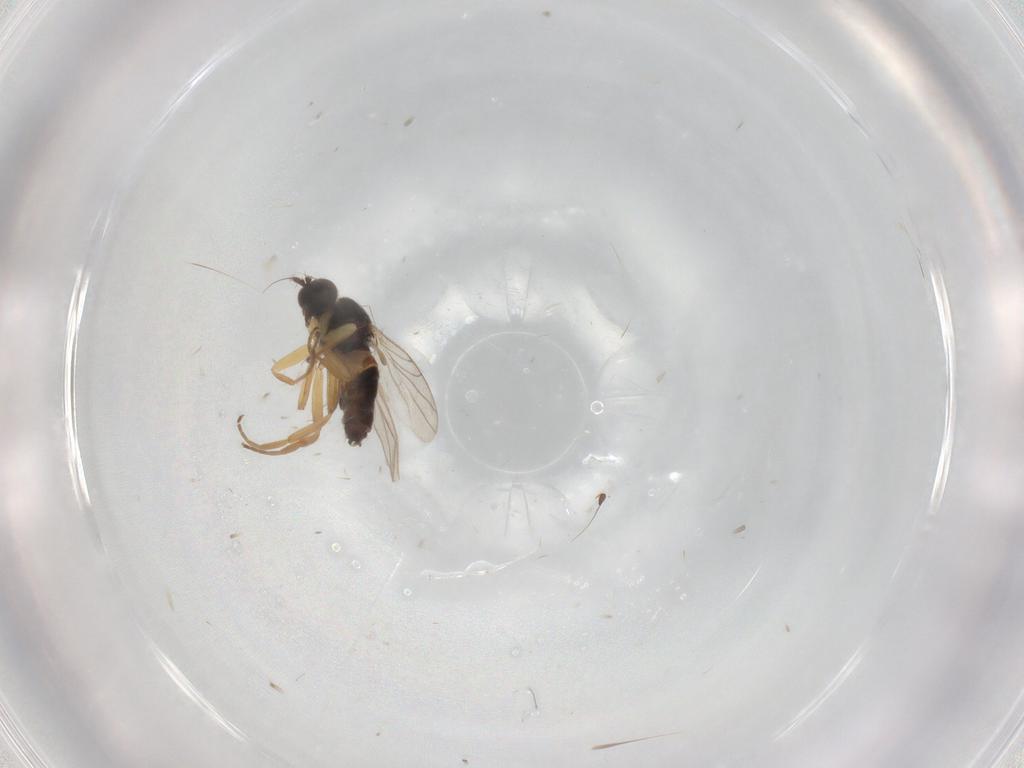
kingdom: Animalia
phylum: Arthropoda
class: Insecta
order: Diptera
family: Hybotidae
